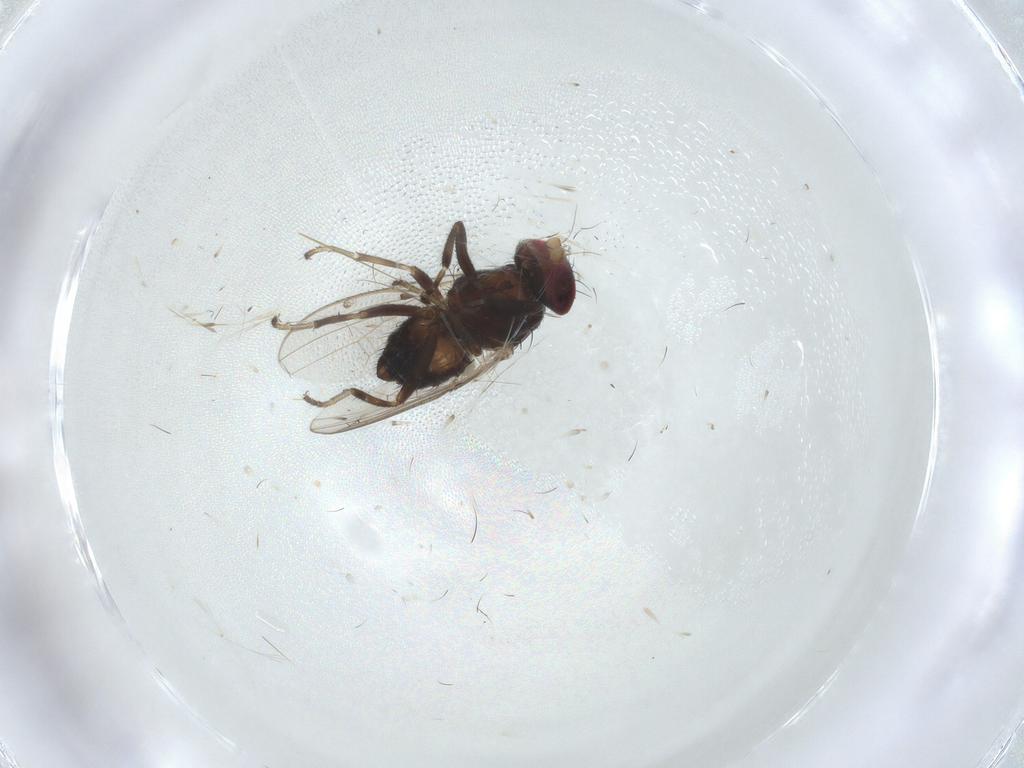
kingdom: Animalia
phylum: Arthropoda
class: Insecta
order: Diptera
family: Heleomyzidae
